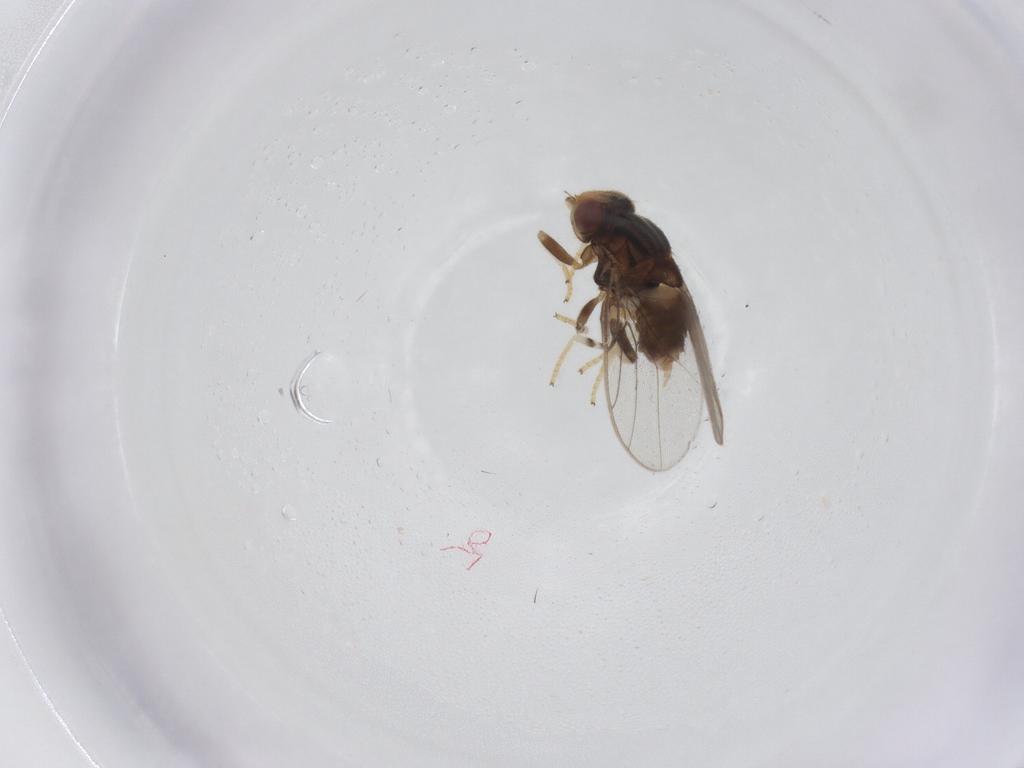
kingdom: Animalia
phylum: Arthropoda
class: Insecta
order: Diptera
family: Chloropidae
